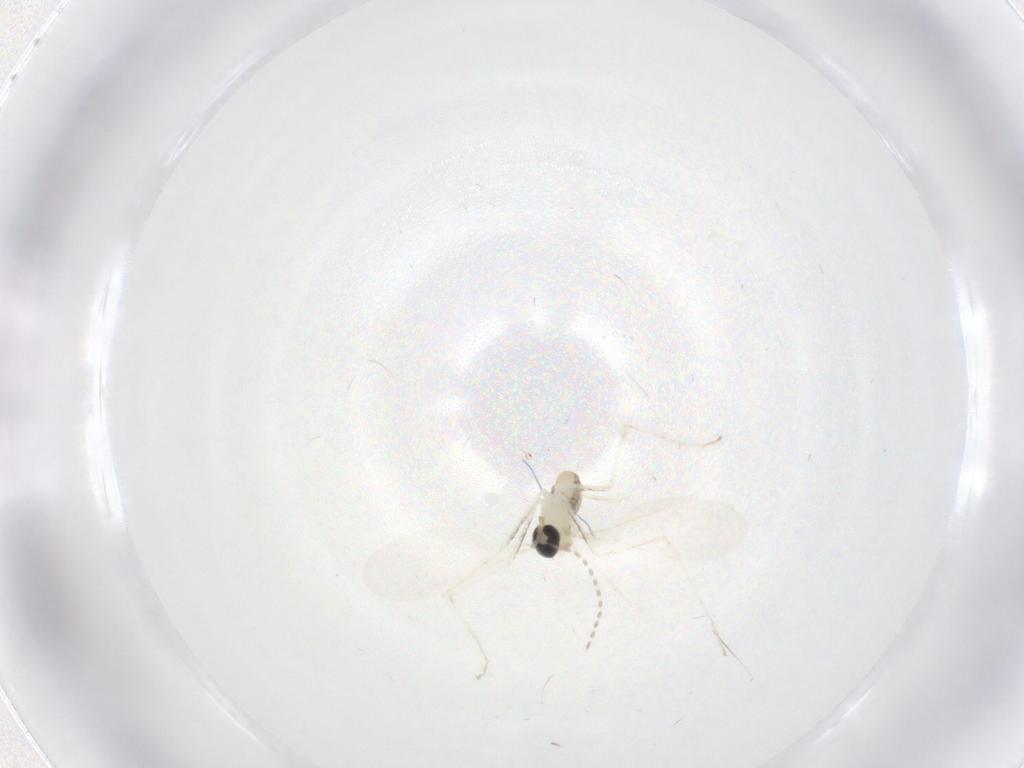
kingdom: Animalia
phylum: Arthropoda
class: Insecta
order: Diptera
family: Cecidomyiidae
